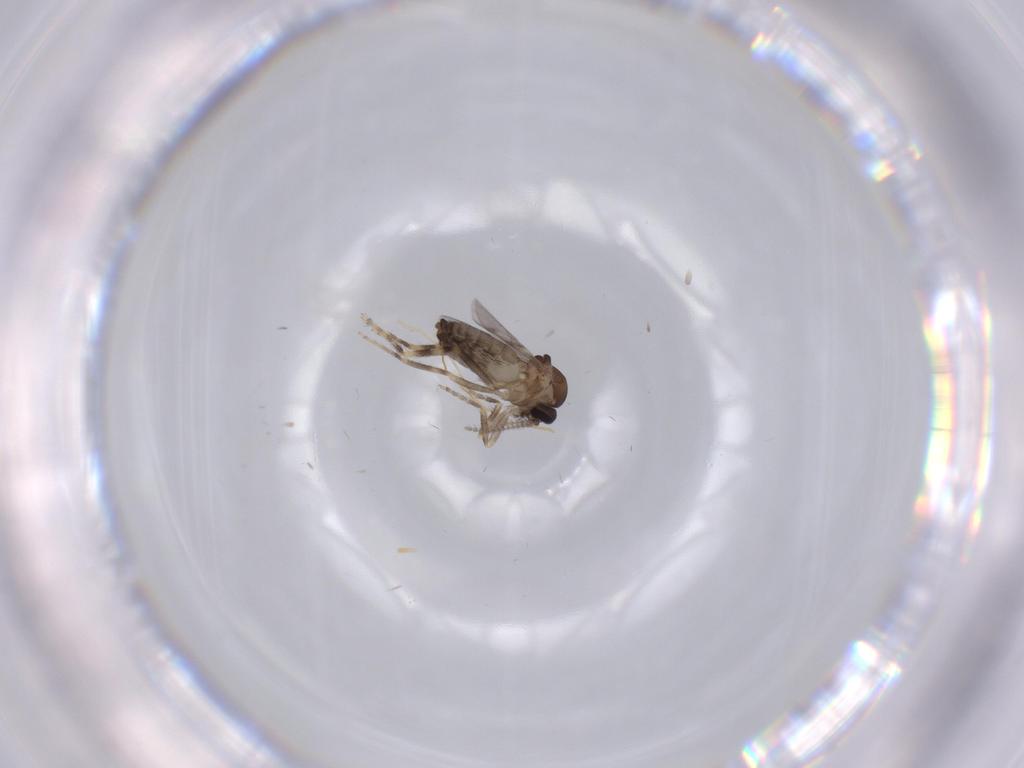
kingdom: Animalia
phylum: Arthropoda
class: Insecta
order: Diptera
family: Ceratopogonidae
